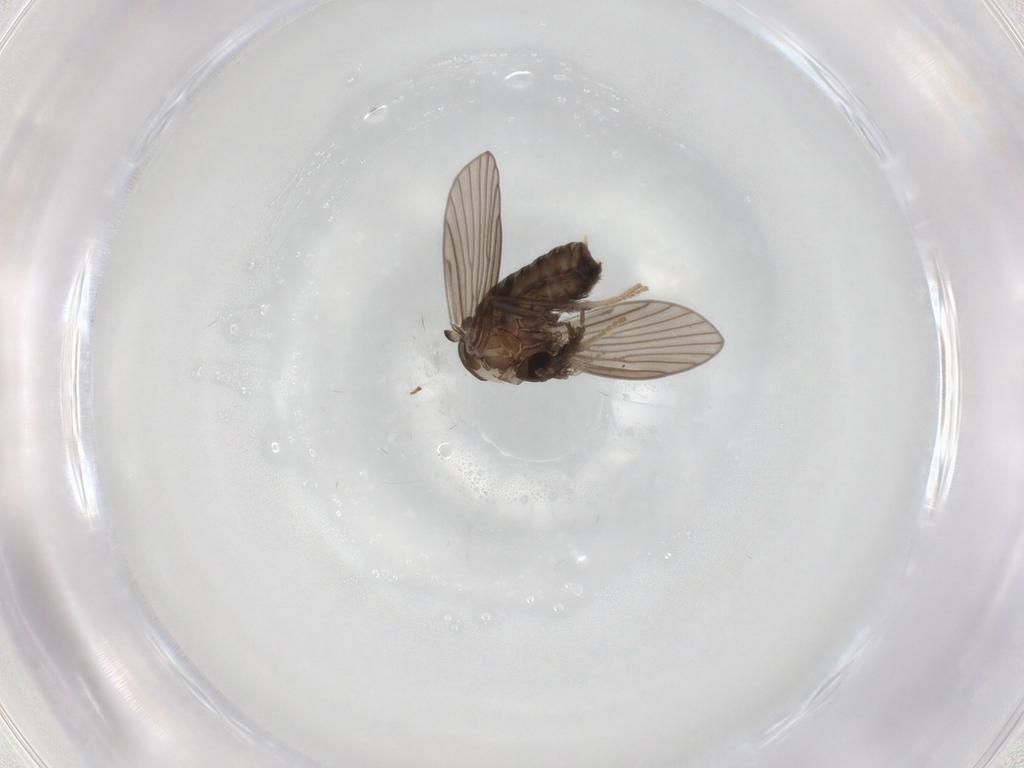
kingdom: Animalia
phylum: Arthropoda
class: Insecta
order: Diptera
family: Psychodidae
